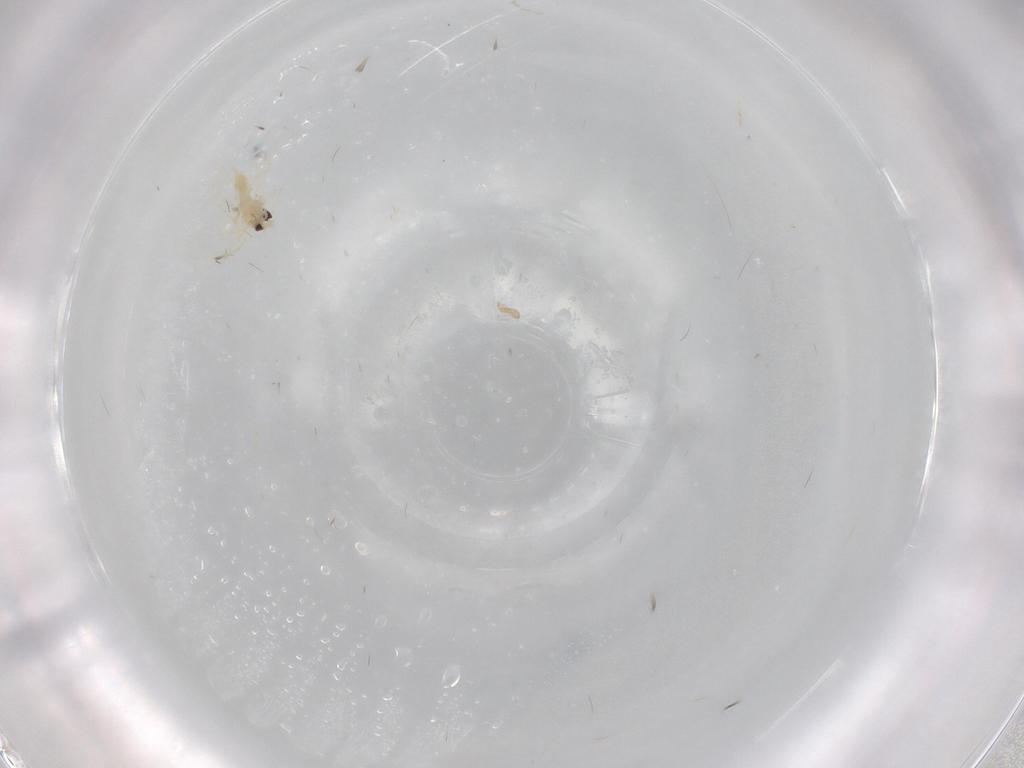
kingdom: Animalia
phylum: Arthropoda
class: Insecta
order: Hemiptera
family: Aleyrodidae
